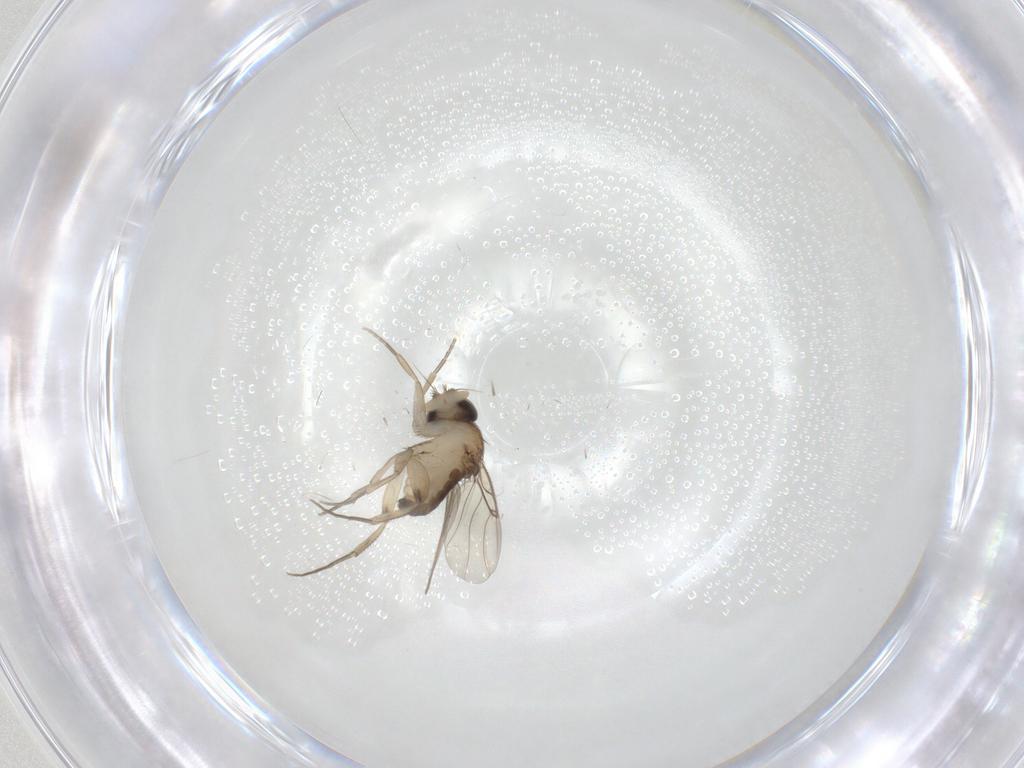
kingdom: Animalia
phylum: Arthropoda
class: Insecta
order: Diptera
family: Phoridae
